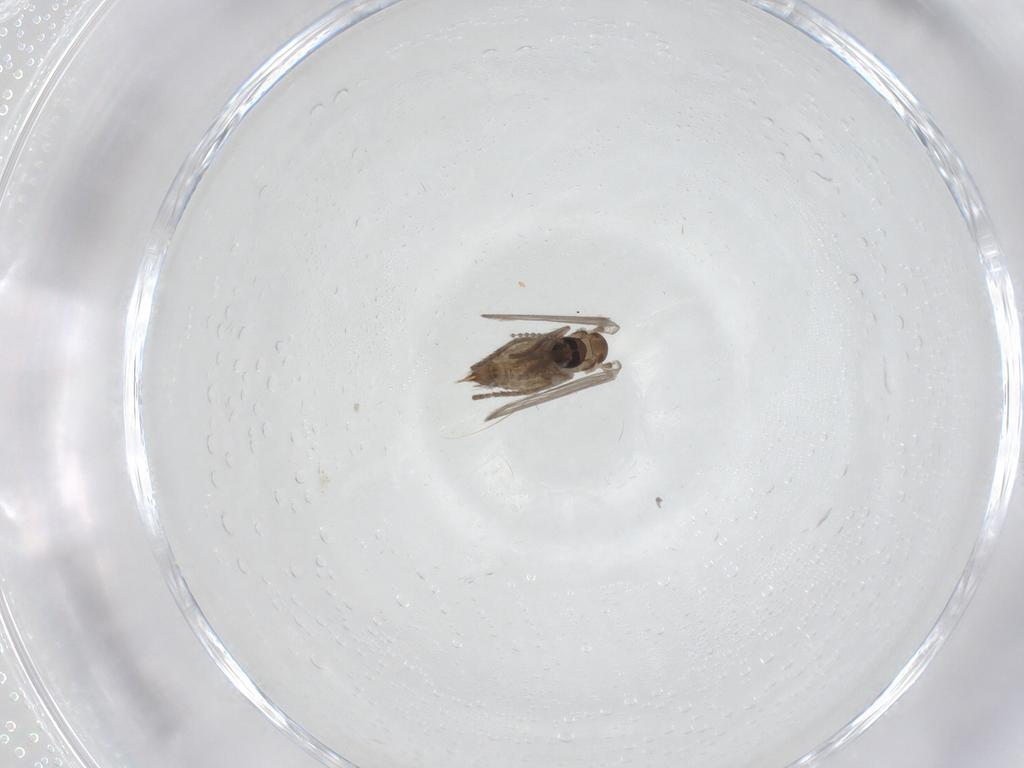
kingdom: Animalia
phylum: Arthropoda
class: Insecta
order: Diptera
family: Psychodidae
